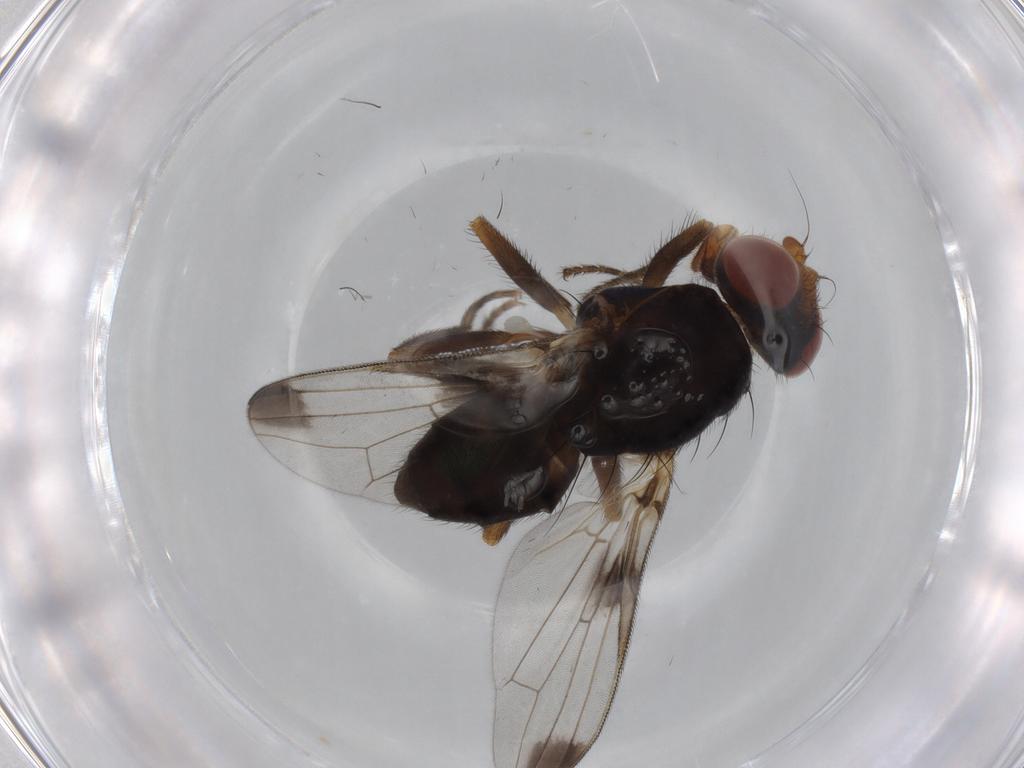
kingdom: Animalia
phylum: Arthropoda
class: Insecta
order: Diptera
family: Ulidiidae
